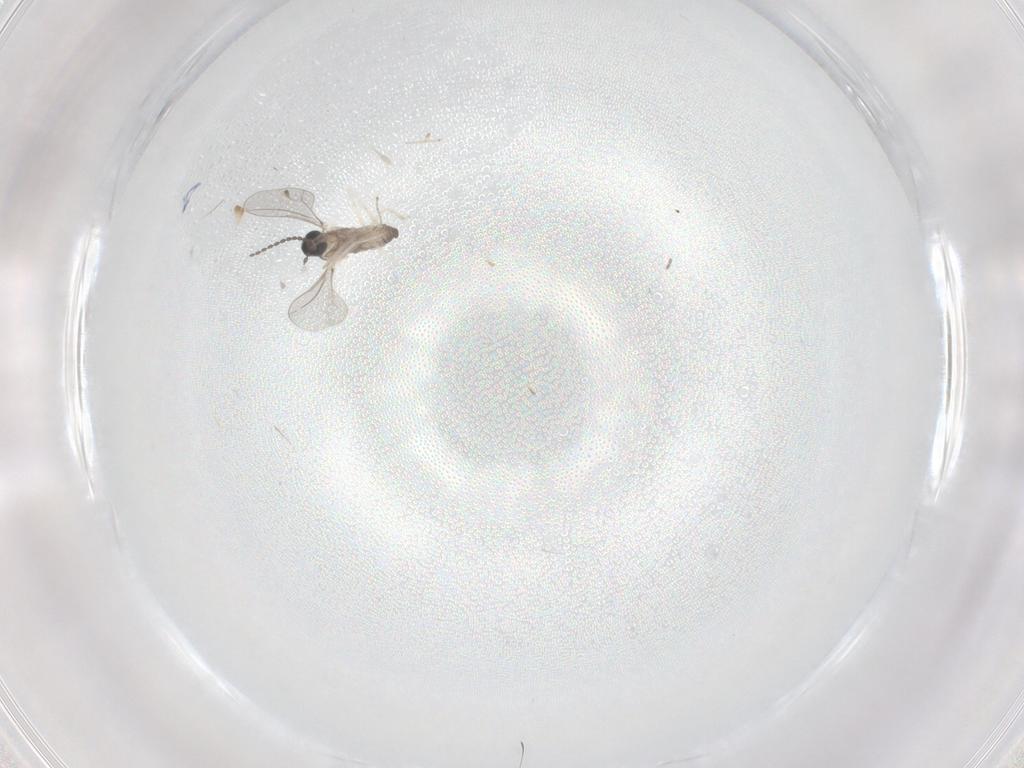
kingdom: Animalia
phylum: Arthropoda
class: Insecta
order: Diptera
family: Cecidomyiidae
